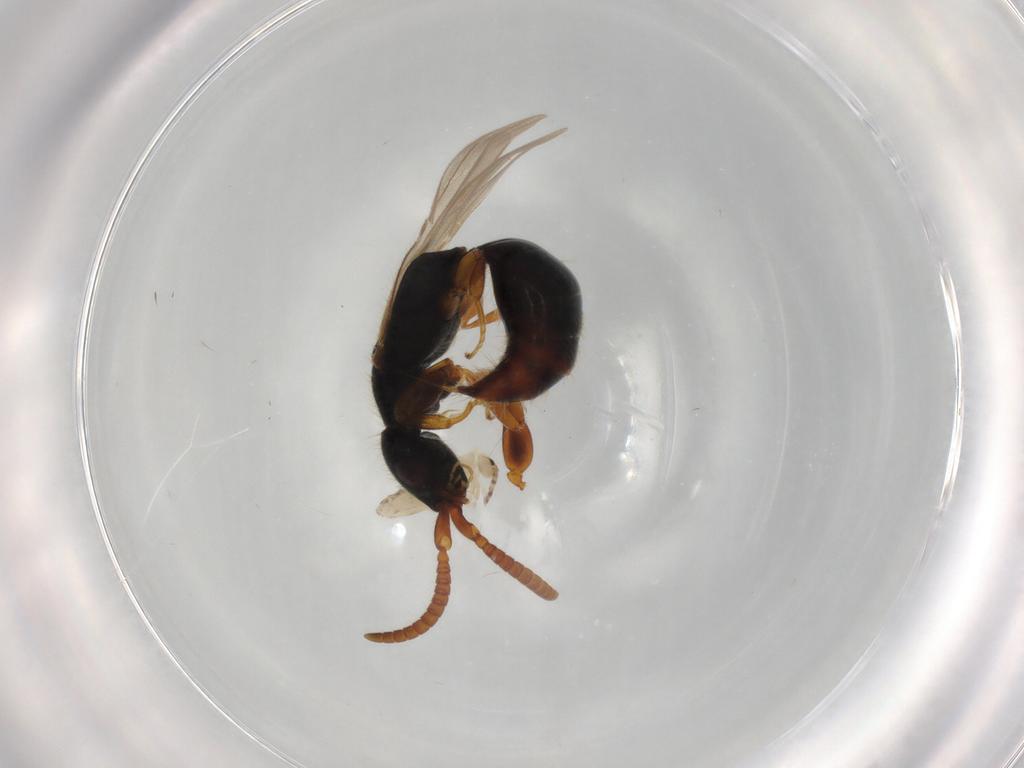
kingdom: Animalia
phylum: Arthropoda
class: Insecta
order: Hymenoptera
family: Bethylidae
